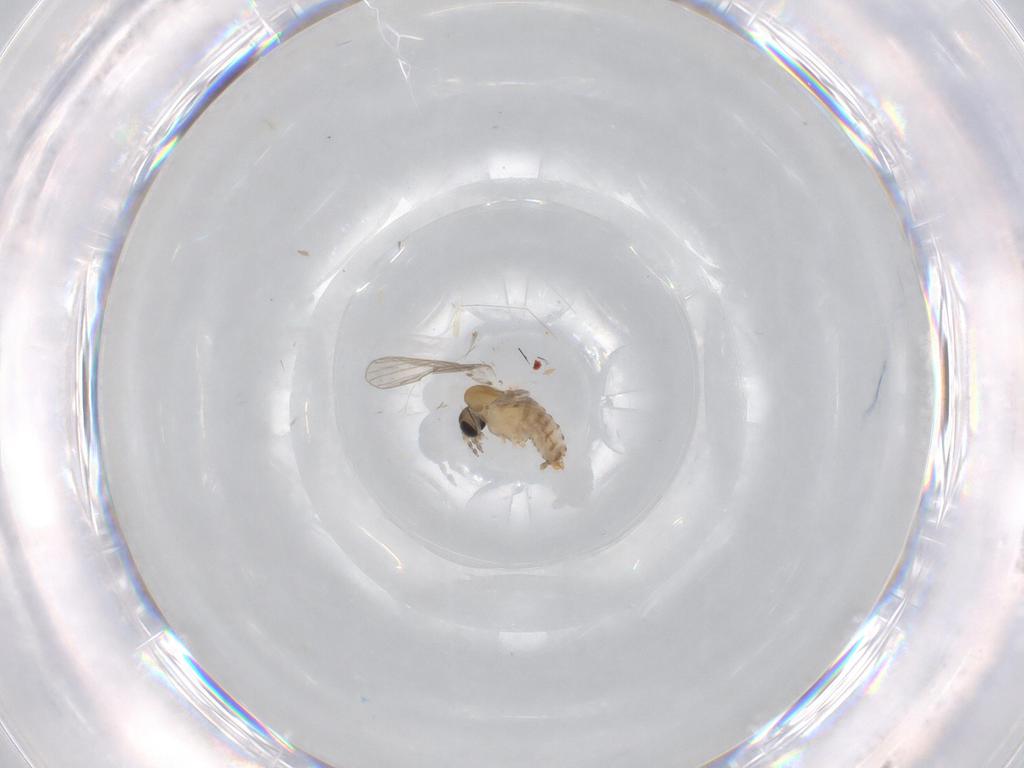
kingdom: Animalia
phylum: Arthropoda
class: Insecta
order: Diptera
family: Psychodidae
